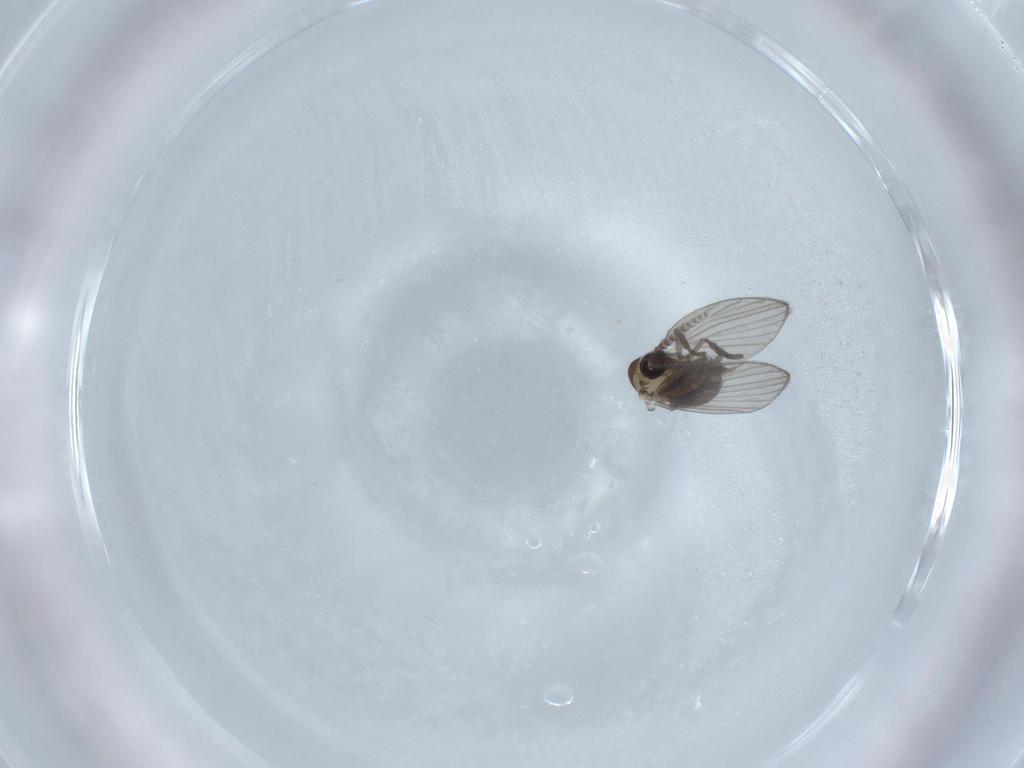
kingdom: Animalia
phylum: Arthropoda
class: Insecta
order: Diptera
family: Psychodidae
